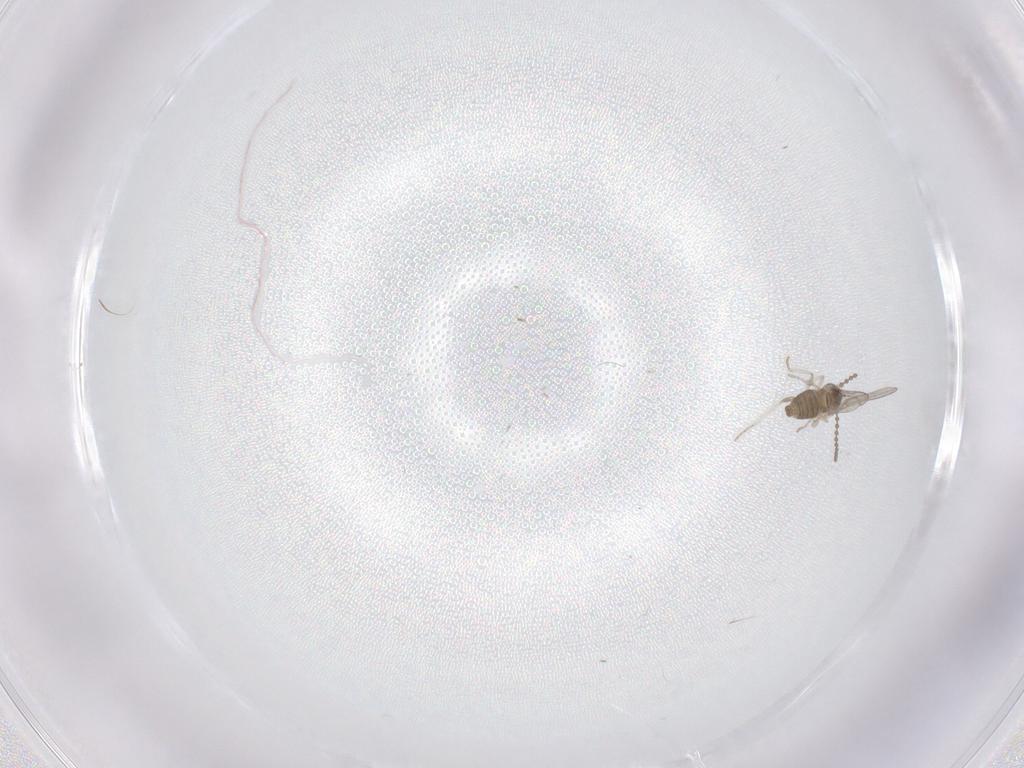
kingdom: Animalia
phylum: Arthropoda
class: Insecta
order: Diptera
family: Cecidomyiidae
